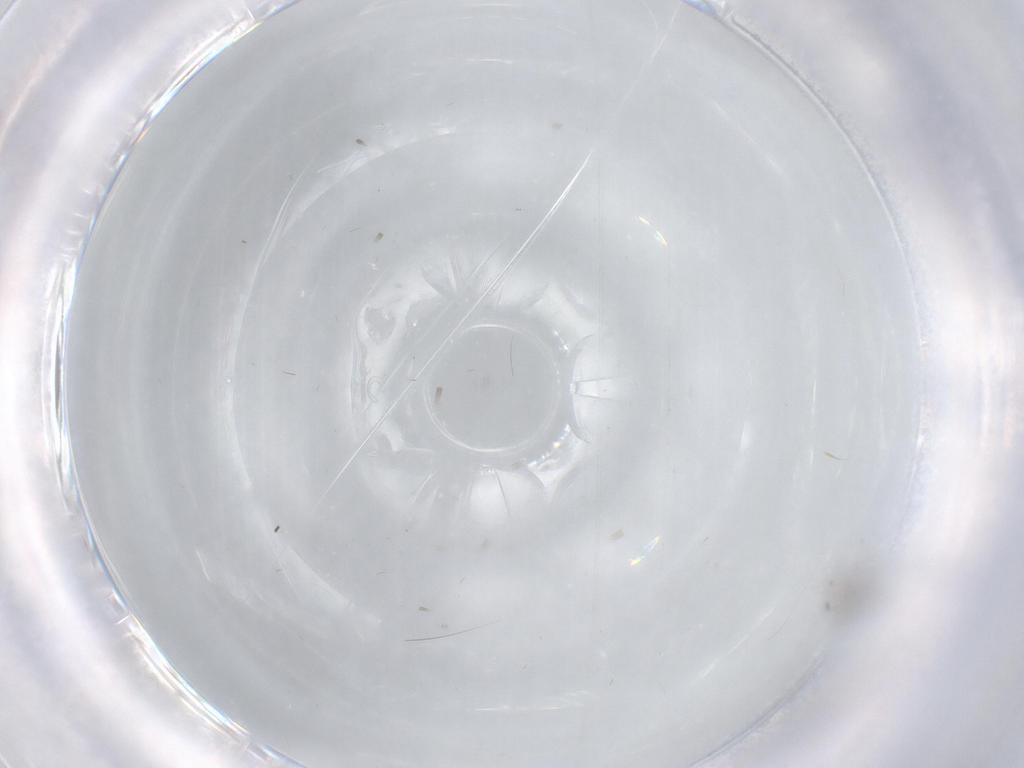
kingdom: Animalia
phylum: Arthropoda
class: Insecta
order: Diptera
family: Chironomidae
